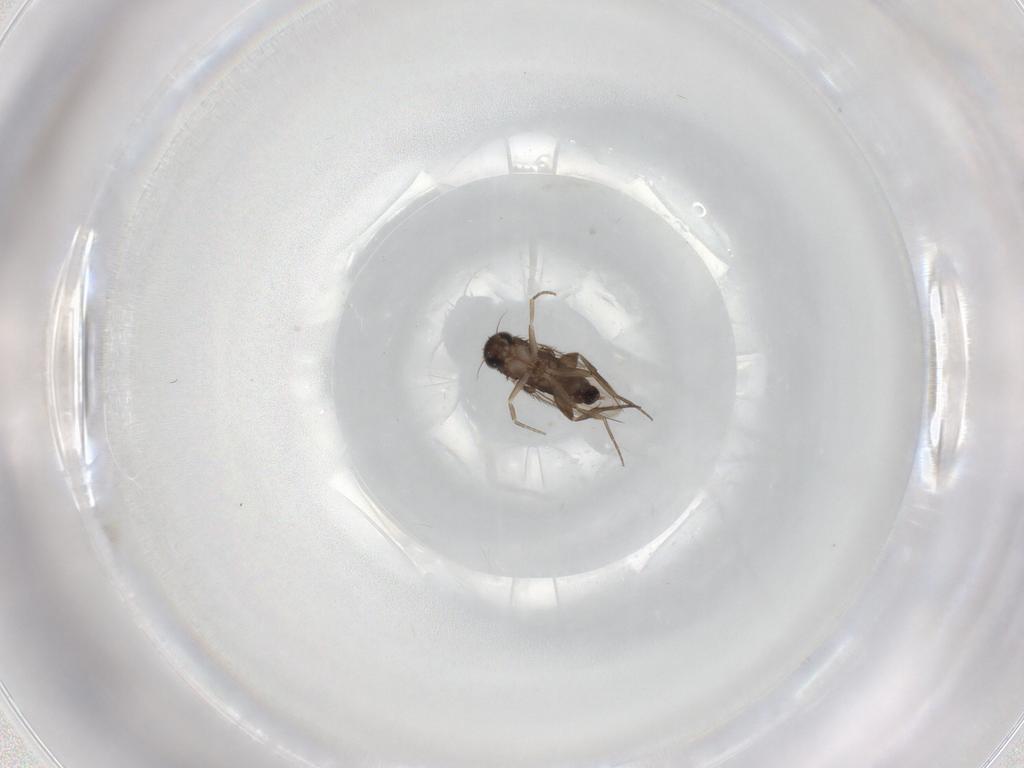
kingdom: Animalia
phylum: Arthropoda
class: Insecta
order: Diptera
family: Phoridae
